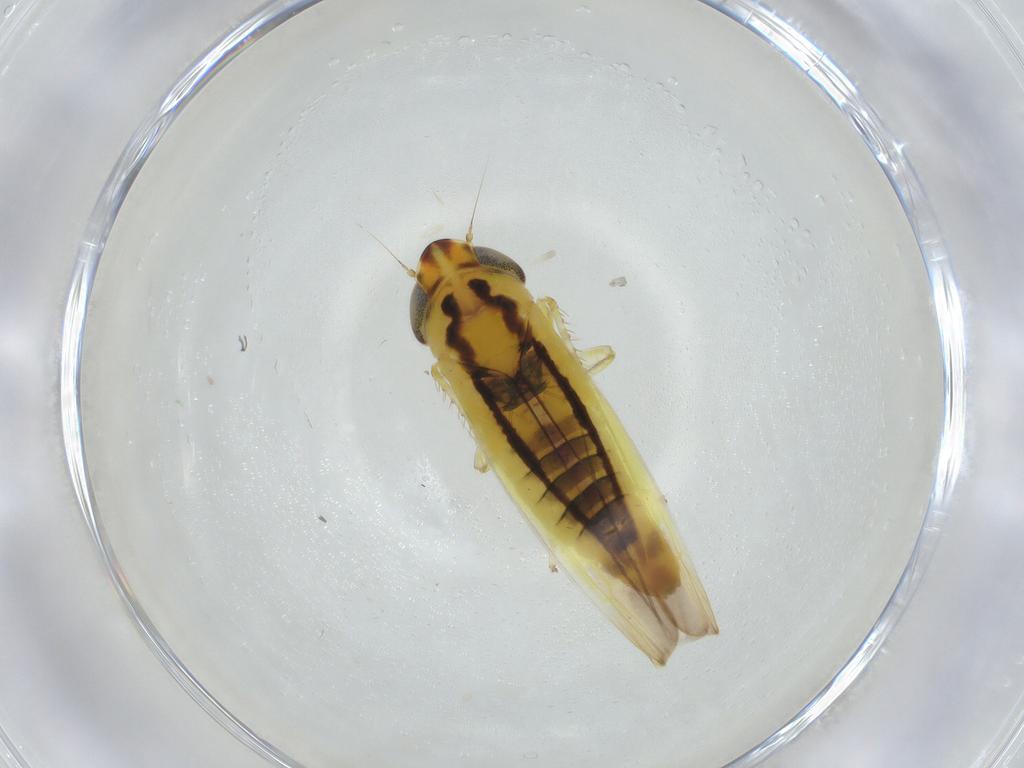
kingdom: Animalia
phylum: Arthropoda
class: Insecta
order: Hemiptera
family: Cicadellidae
